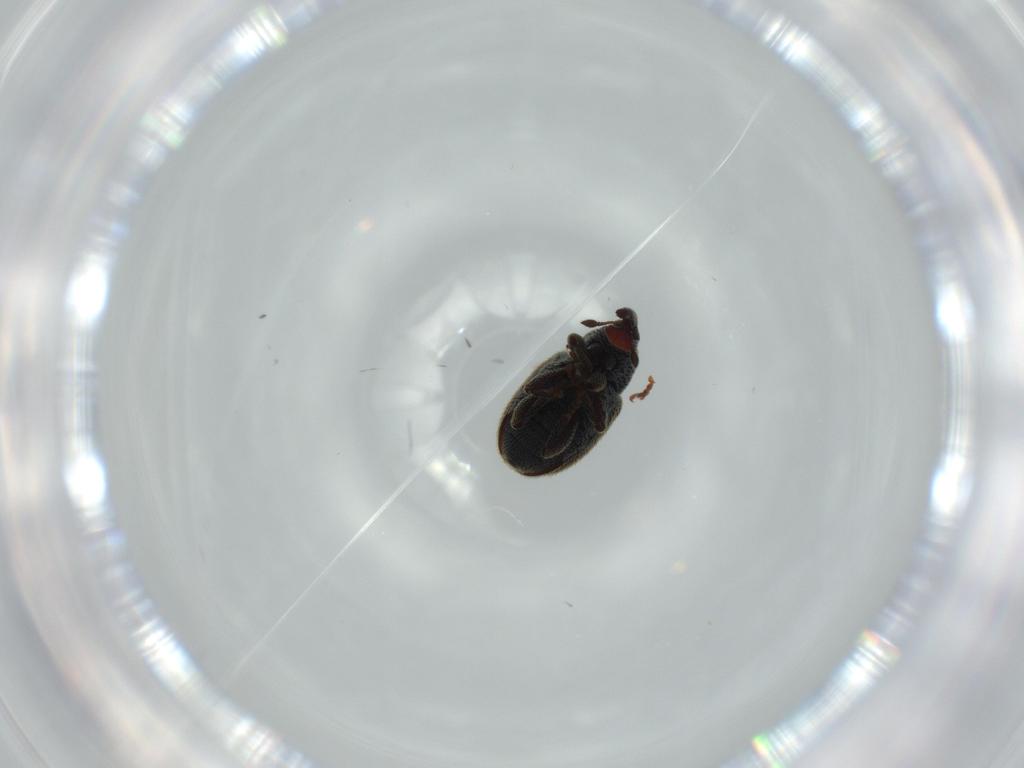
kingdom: Animalia
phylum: Arthropoda
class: Insecta
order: Coleoptera
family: Curculionidae
